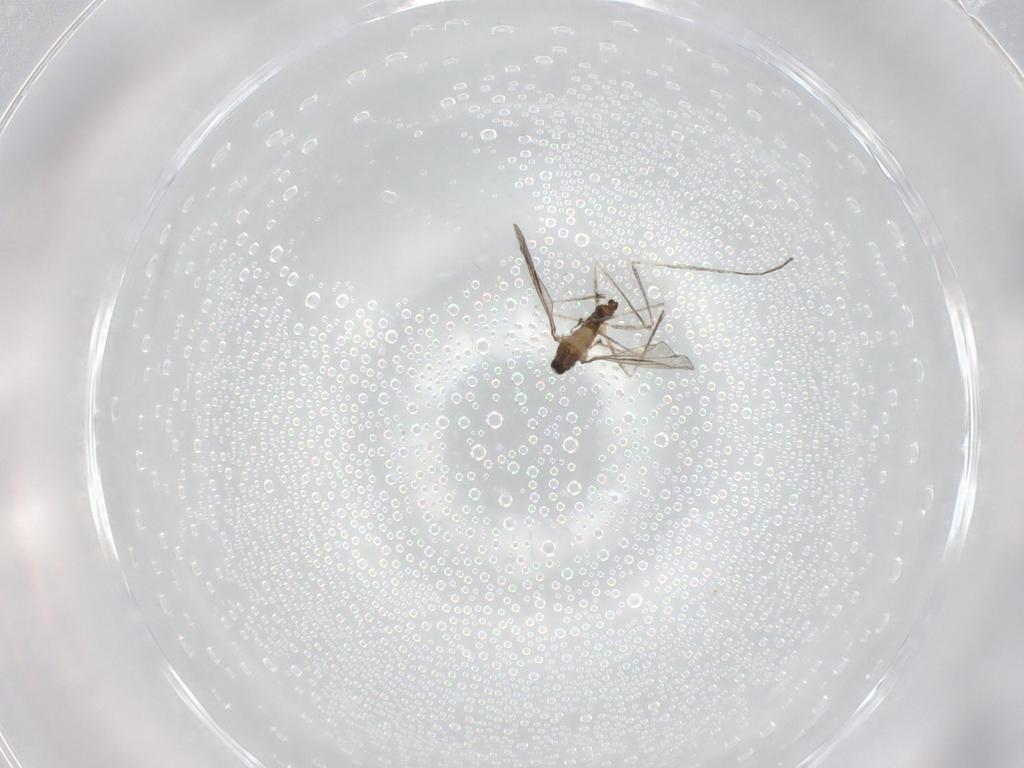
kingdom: Animalia
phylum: Arthropoda
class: Insecta
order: Diptera
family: Cecidomyiidae
